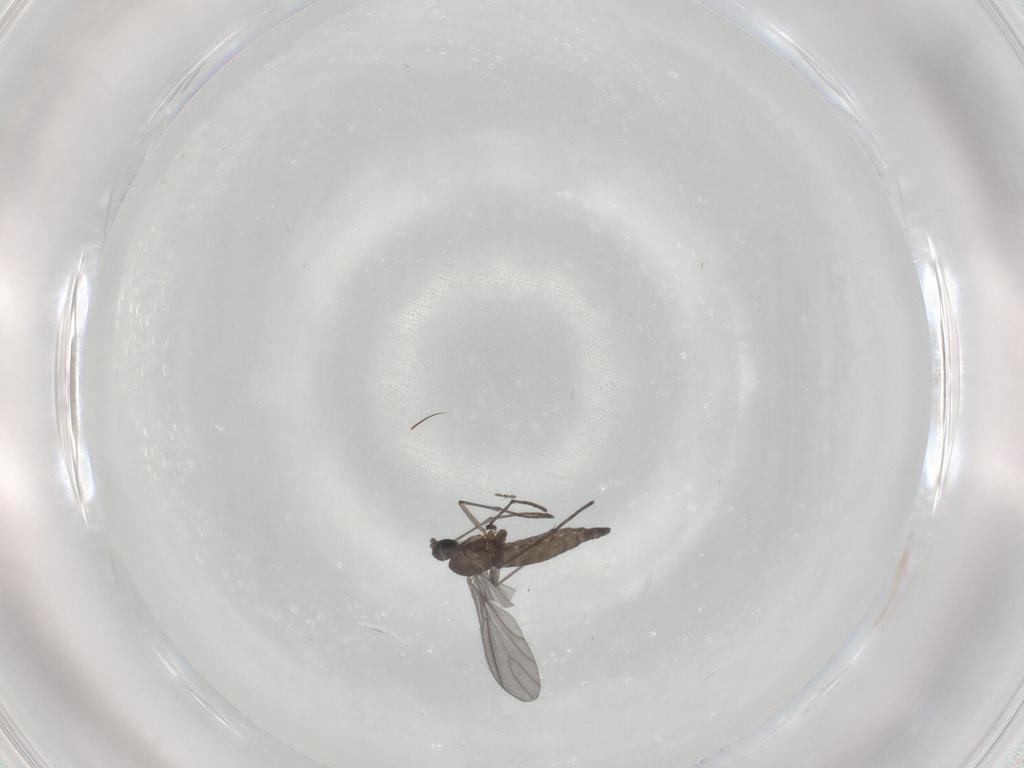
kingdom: Animalia
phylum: Arthropoda
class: Insecta
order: Diptera
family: Sciaridae
